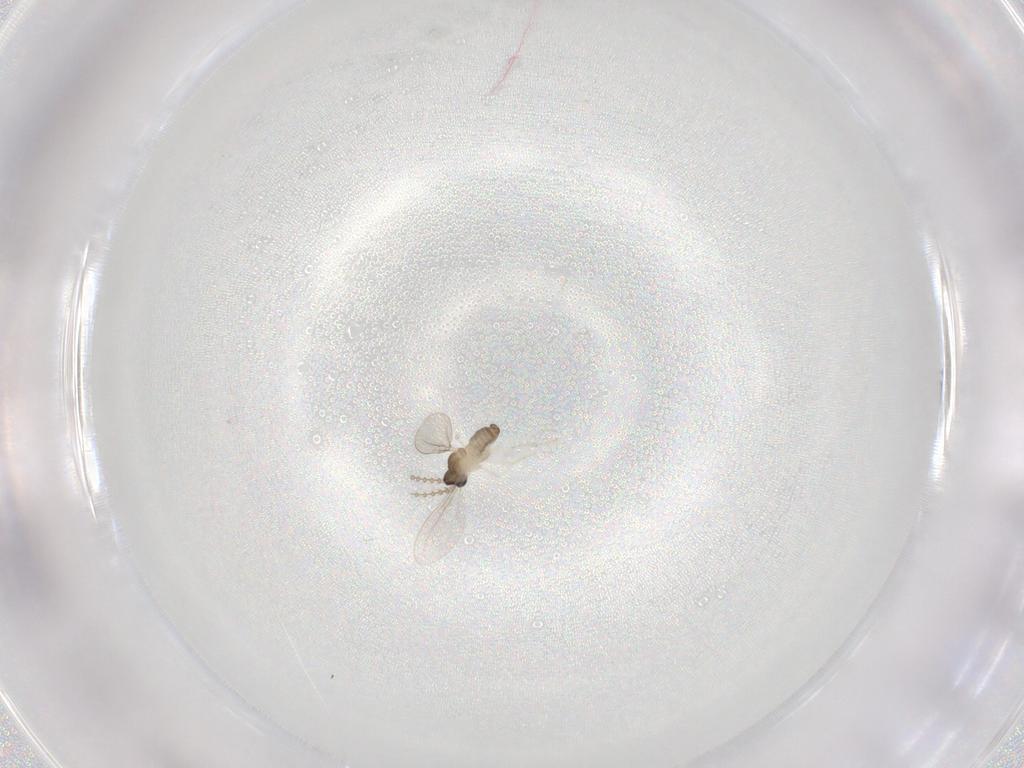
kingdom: Animalia
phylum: Arthropoda
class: Insecta
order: Diptera
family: Cecidomyiidae
